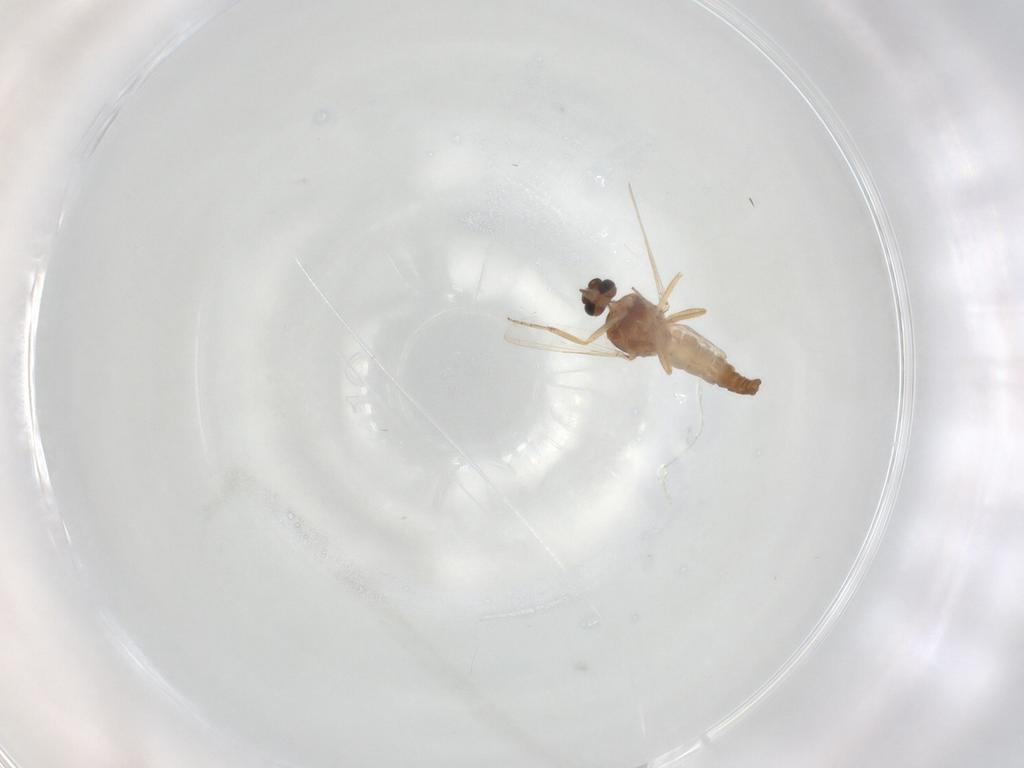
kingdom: Animalia
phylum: Arthropoda
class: Insecta
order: Diptera
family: Ceratopogonidae
